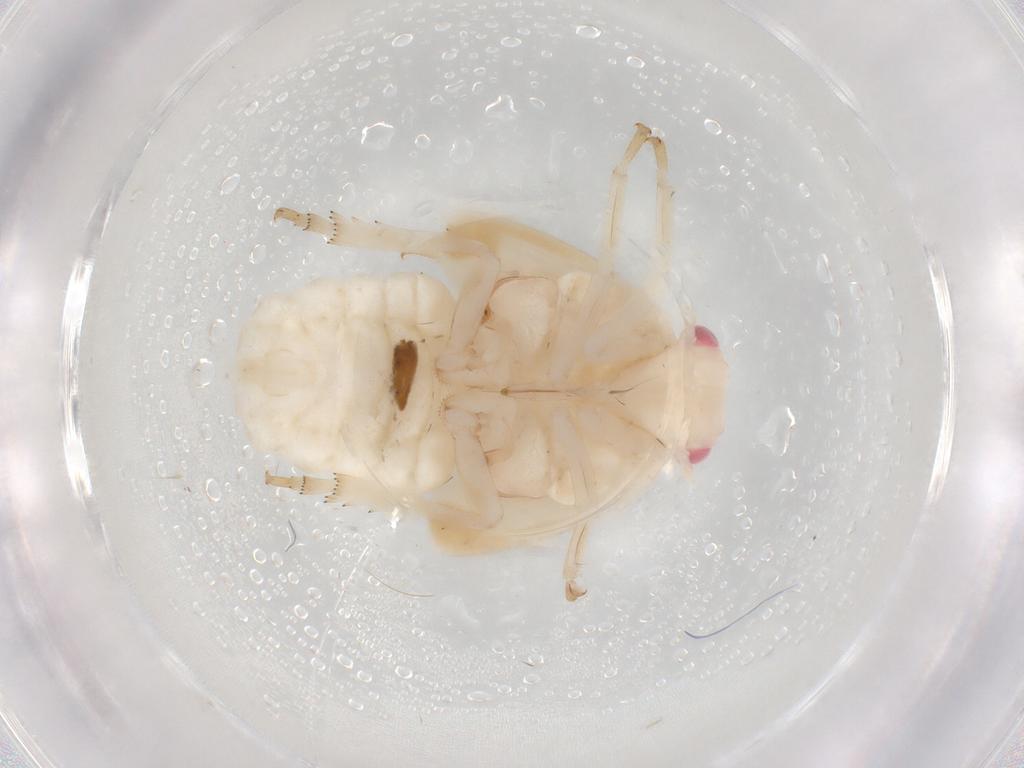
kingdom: Animalia
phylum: Arthropoda
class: Insecta
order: Hemiptera
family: Flatidae
